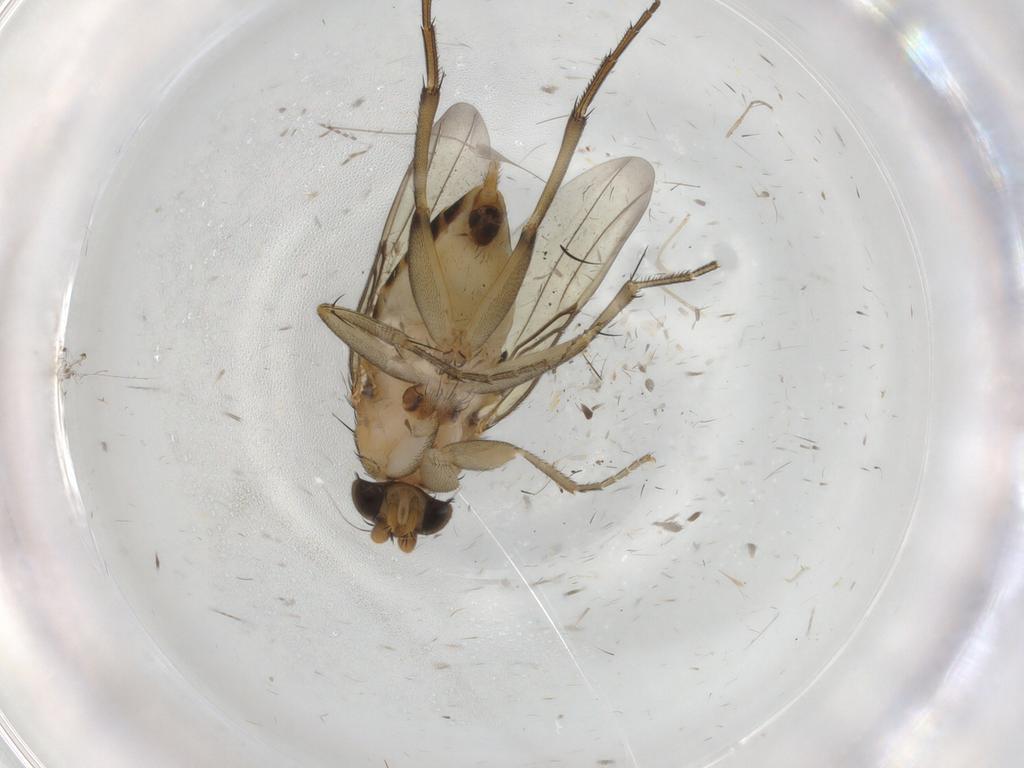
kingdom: Animalia
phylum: Arthropoda
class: Insecta
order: Diptera
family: Sciaridae
